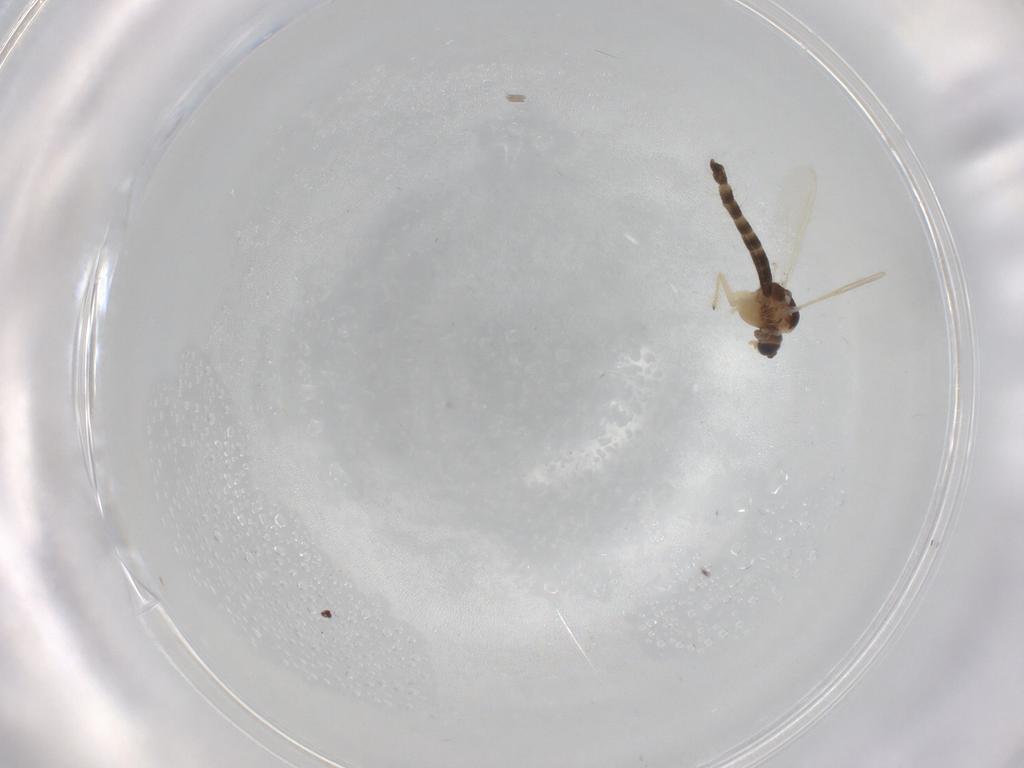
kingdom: Animalia
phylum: Arthropoda
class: Insecta
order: Diptera
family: Chironomidae
